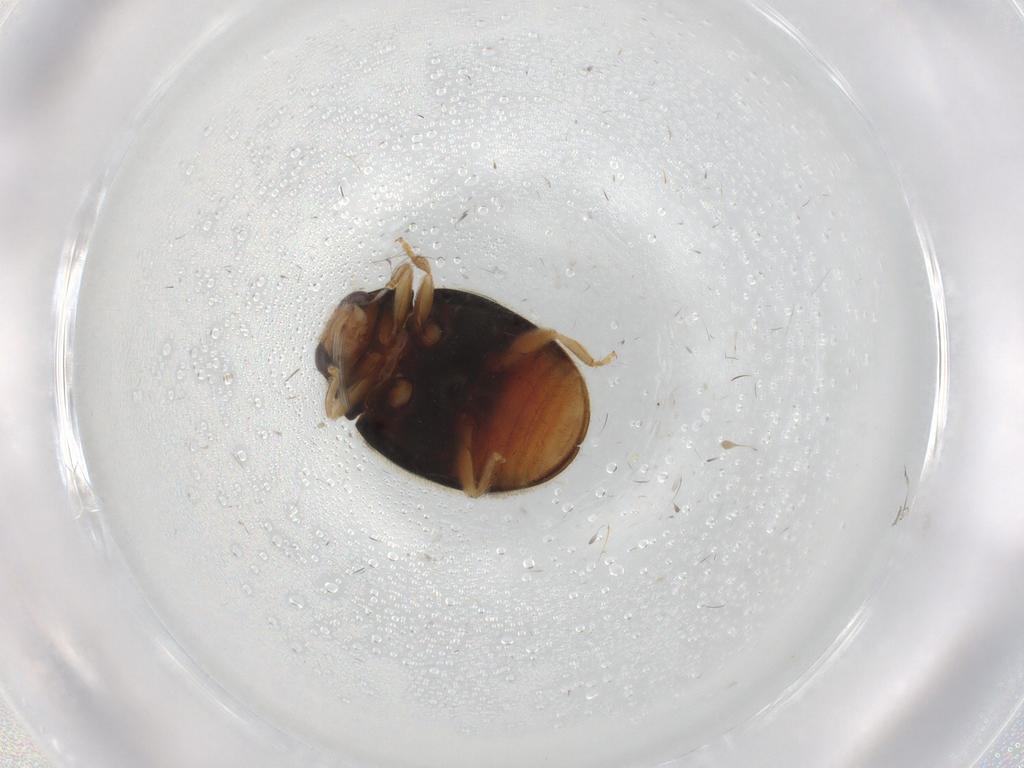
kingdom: Animalia
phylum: Arthropoda
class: Insecta
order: Coleoptera
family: Coccinellidae
